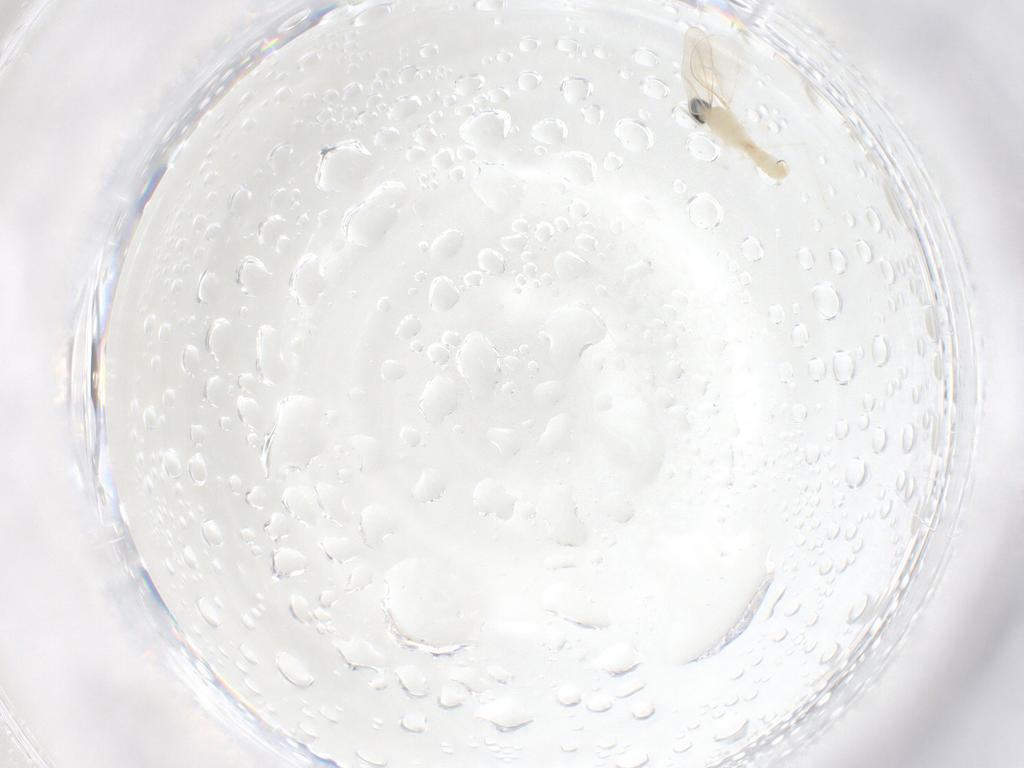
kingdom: Animalia
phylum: Arthropoda
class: Insecta
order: Diptera
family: Cecidomyiidae
